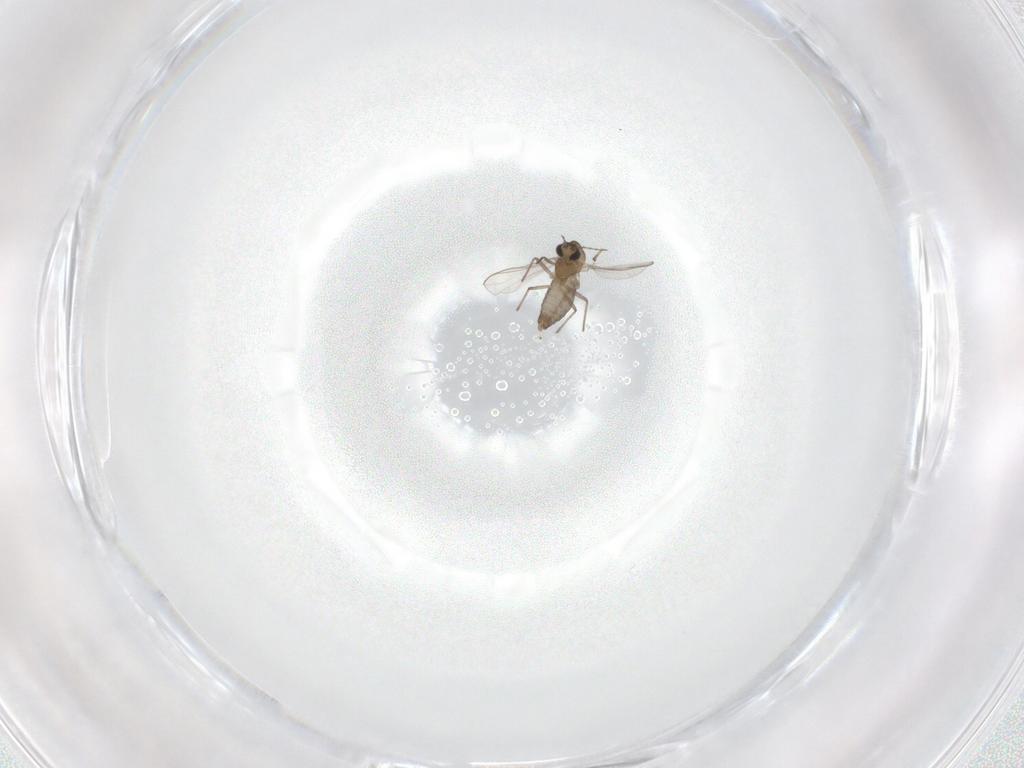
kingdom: Animalia
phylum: Arthropoda
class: Insecta
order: Diptera
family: Chironomidae
